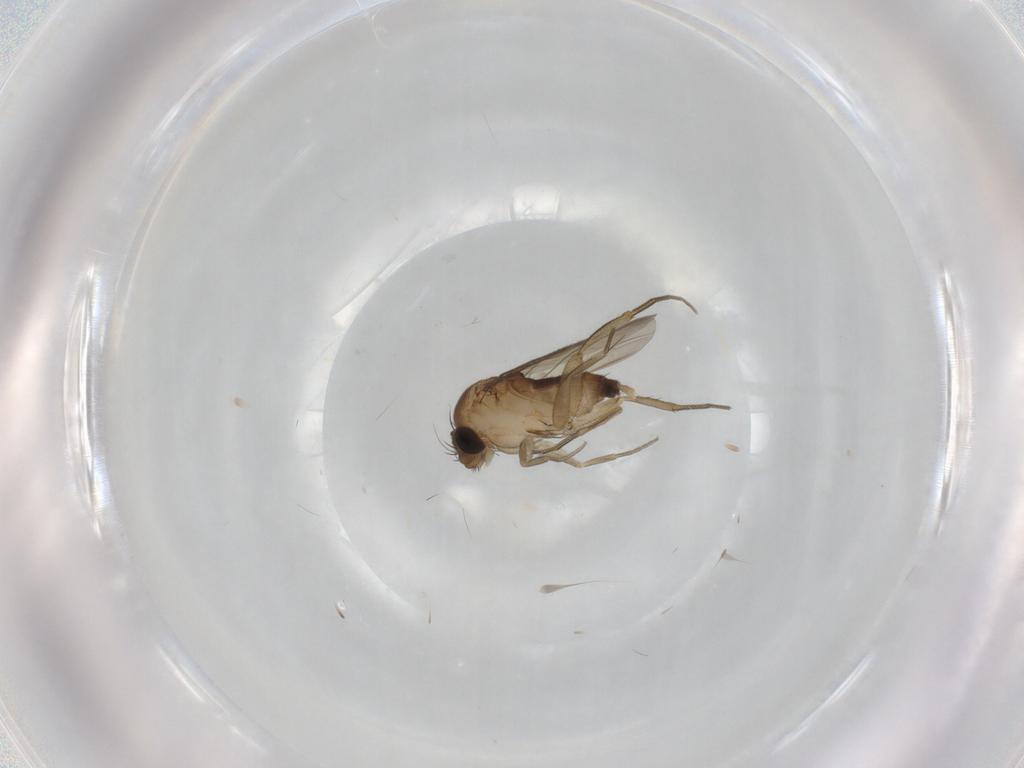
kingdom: Animalia
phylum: Arthropoda
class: Insecta
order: Diptera
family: Phoridae
